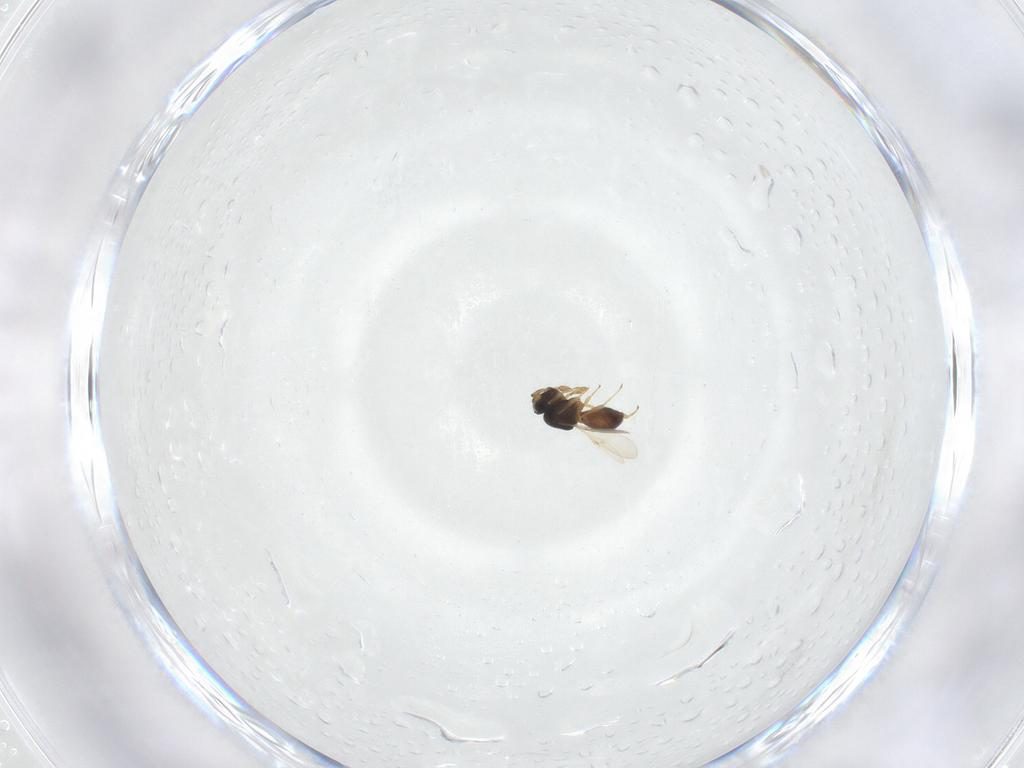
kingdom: Animalia
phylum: Arthropoda
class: Insecta
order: Hymenoptera
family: Scelionidae
